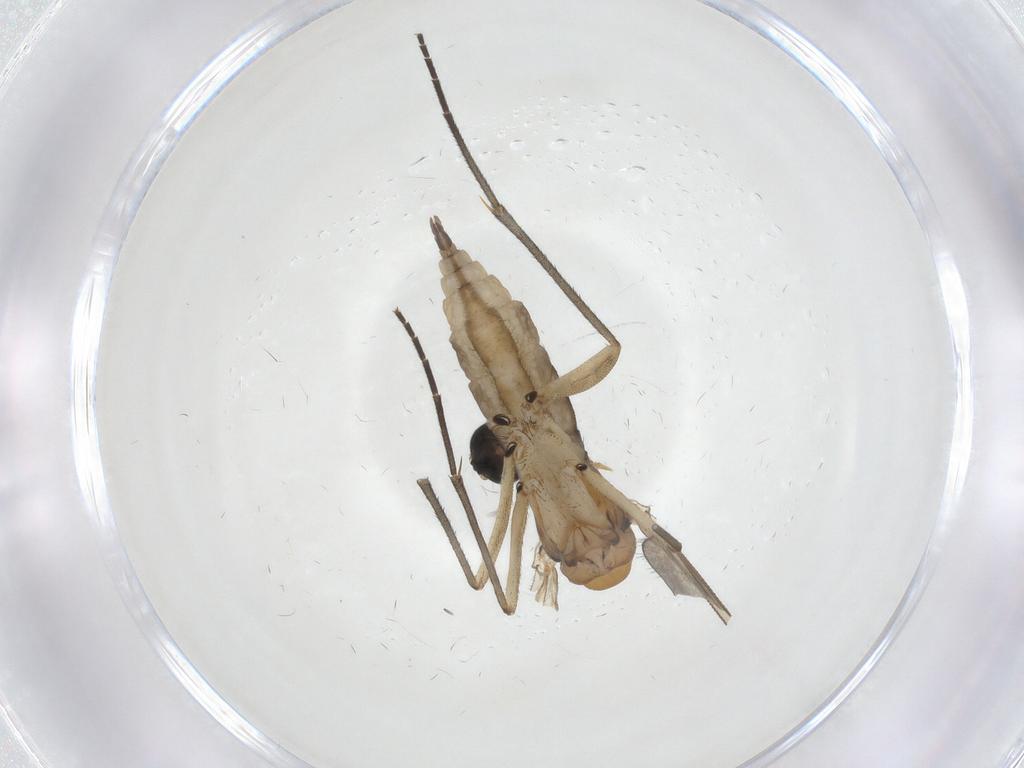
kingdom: Animalia
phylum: Arthropoda
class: Insecta
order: Diptera
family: Sciaridae
